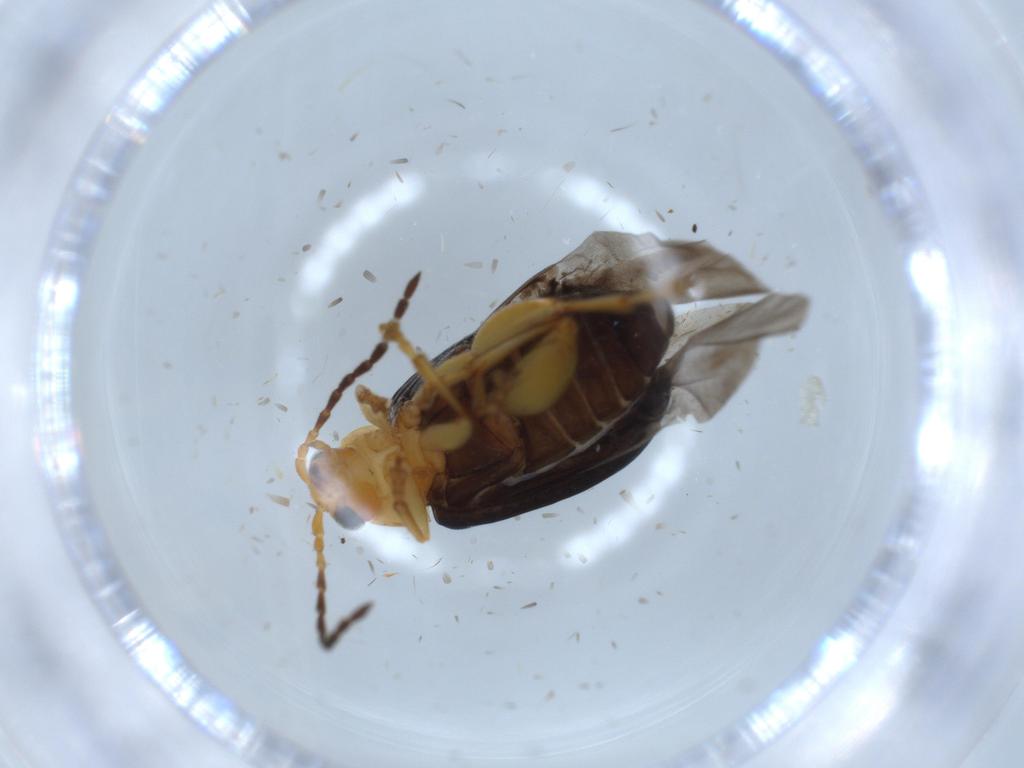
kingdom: Animalia
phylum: Arthropoda
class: Insecta
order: Coleoptera
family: Chrysomelidae
